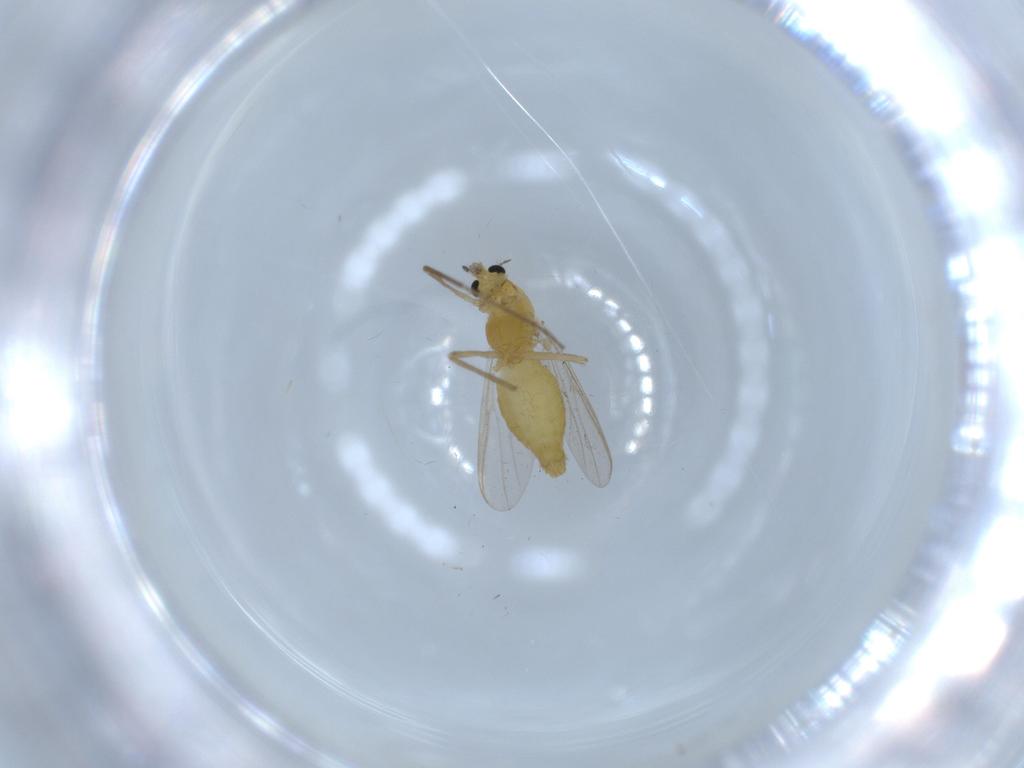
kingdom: Animalia
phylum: Arthropoda
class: Insecta
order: Diptera
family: Chironomidae
